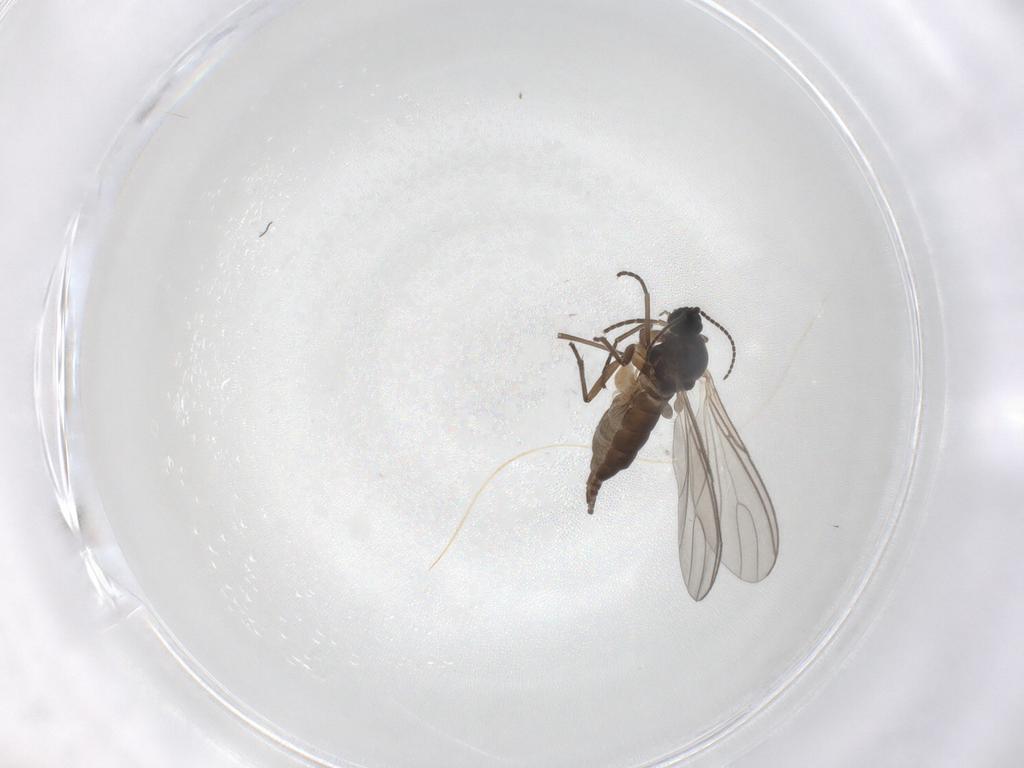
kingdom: Animalia
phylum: Arthropoda
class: Insecta
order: Diptera
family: Sciaridae
